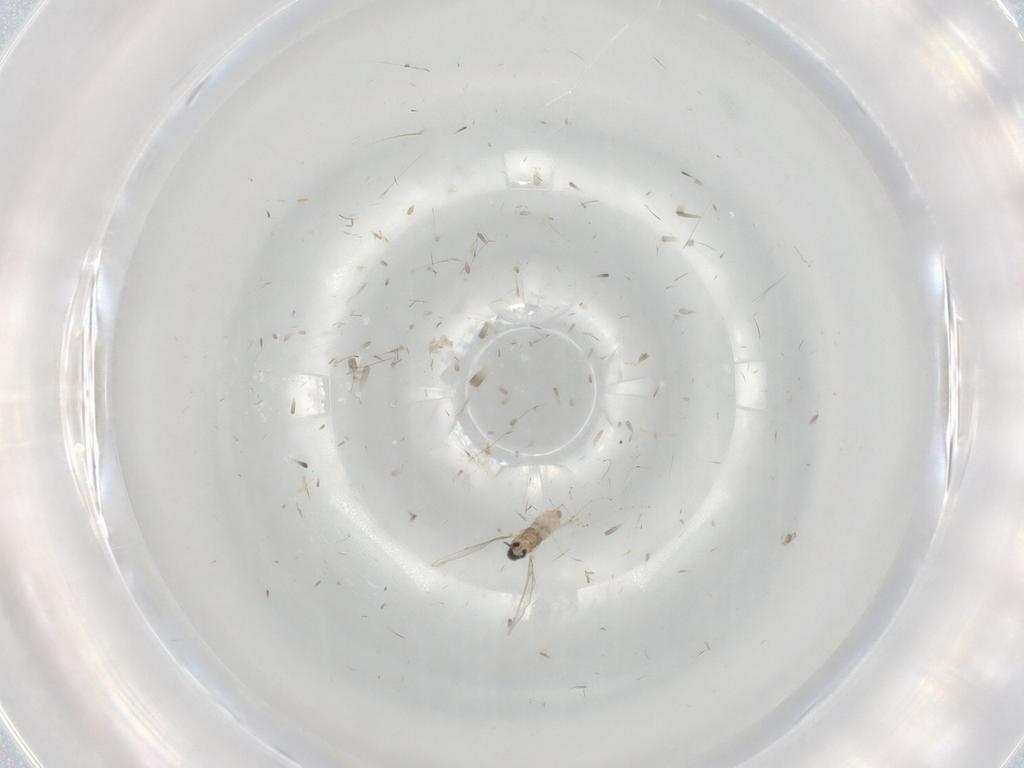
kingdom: Animalia
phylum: Arthropoda
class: Insecta
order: Diptera
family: Cecidomyiidae
